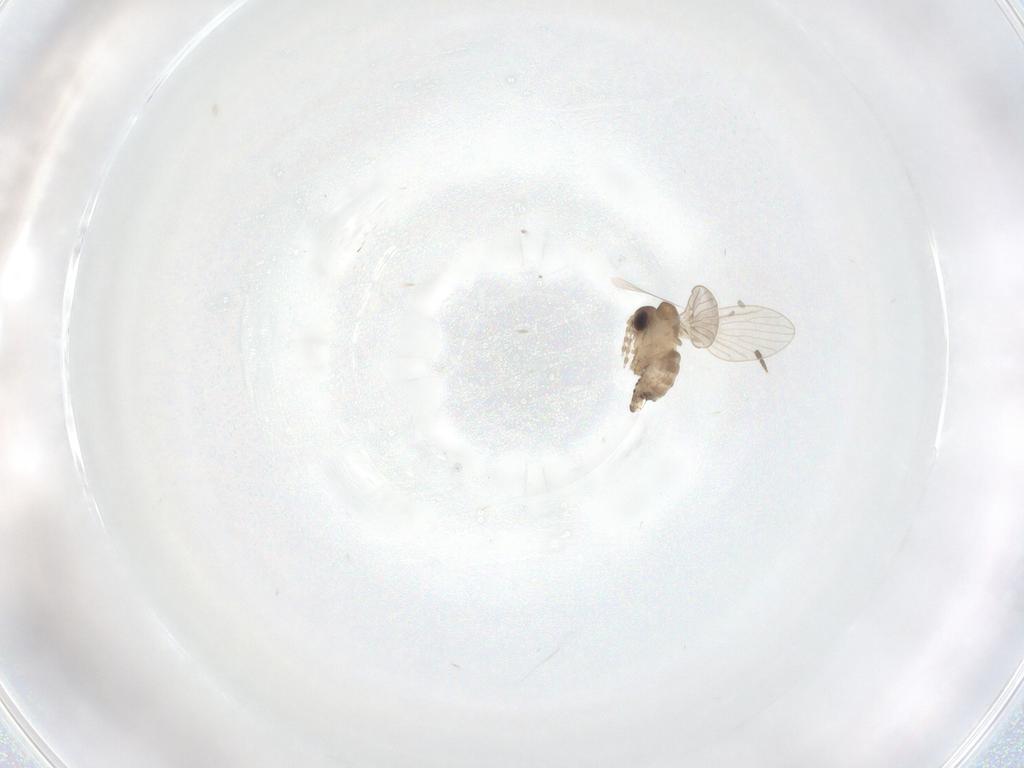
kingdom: Animalia
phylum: Arthropoda
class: Insecta
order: Diptera
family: Sciaridae
